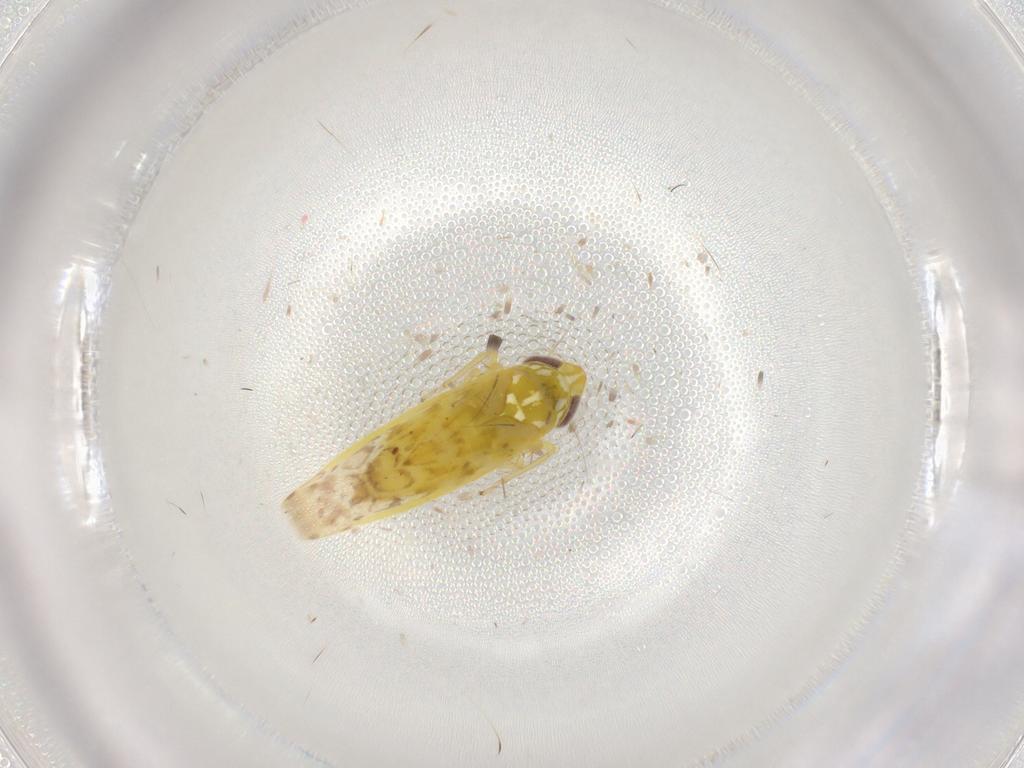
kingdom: Animalia
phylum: Arthropoda
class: Insecta
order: Hemiptera
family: Cicadellidae
